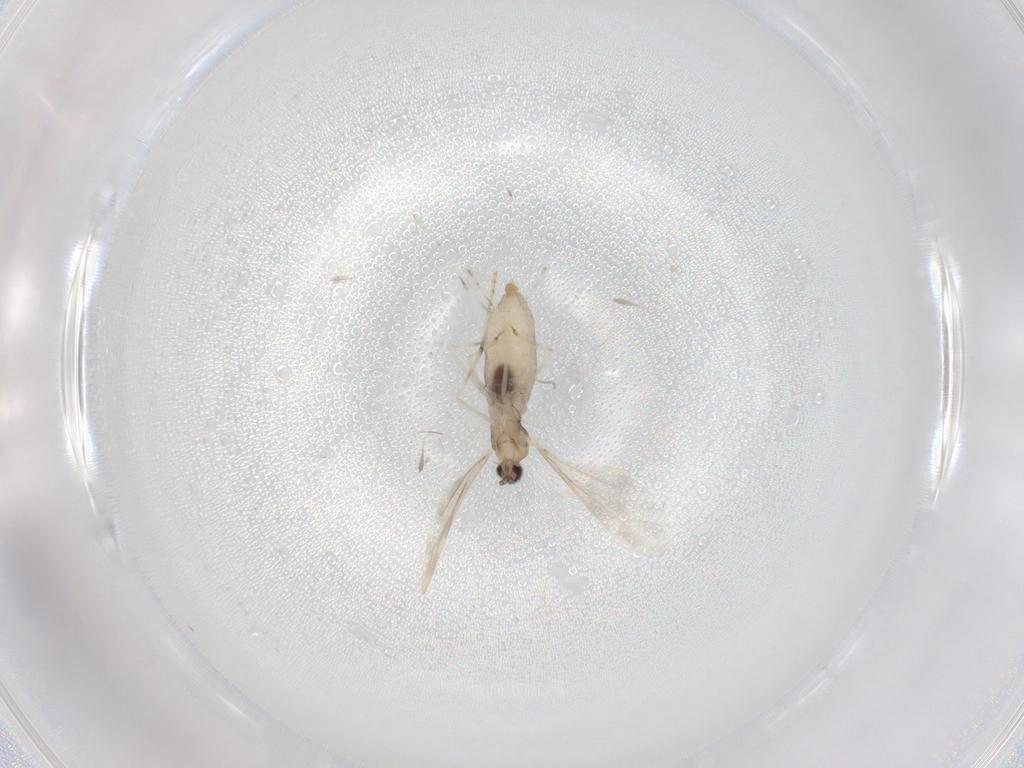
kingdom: Animalia
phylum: Arthropoda
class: Insecta
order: Diptera
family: Cecidomyiidae
